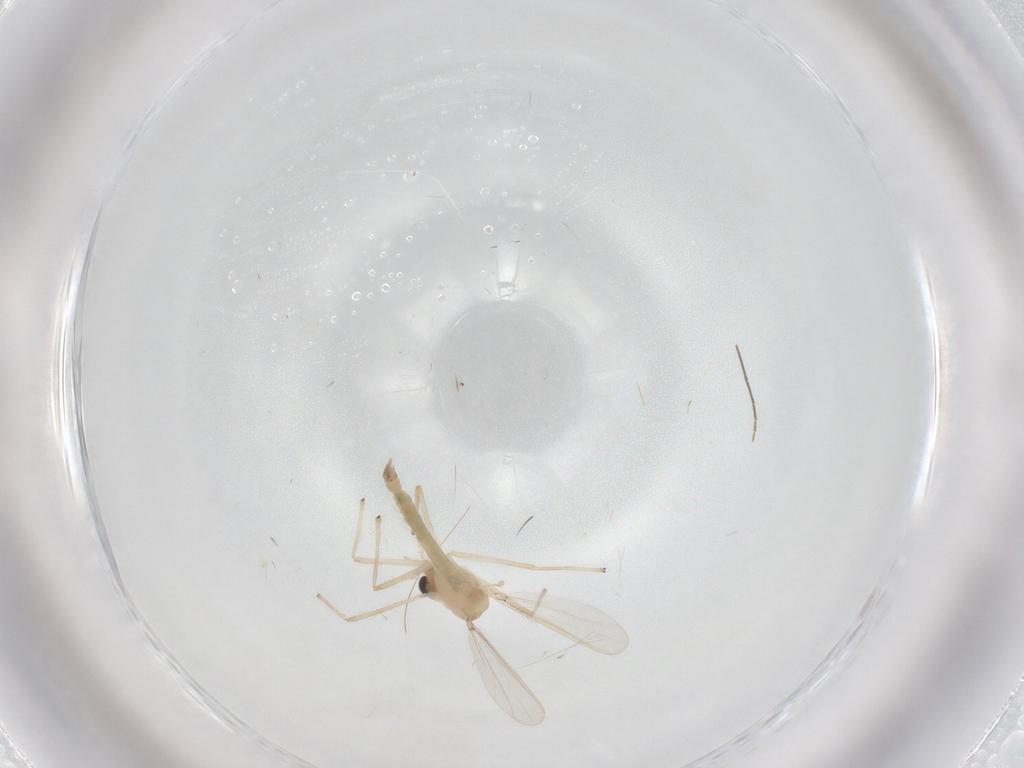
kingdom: Animalia
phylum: Arthropoda
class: Insecta
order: Diptera
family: Chironomidae
